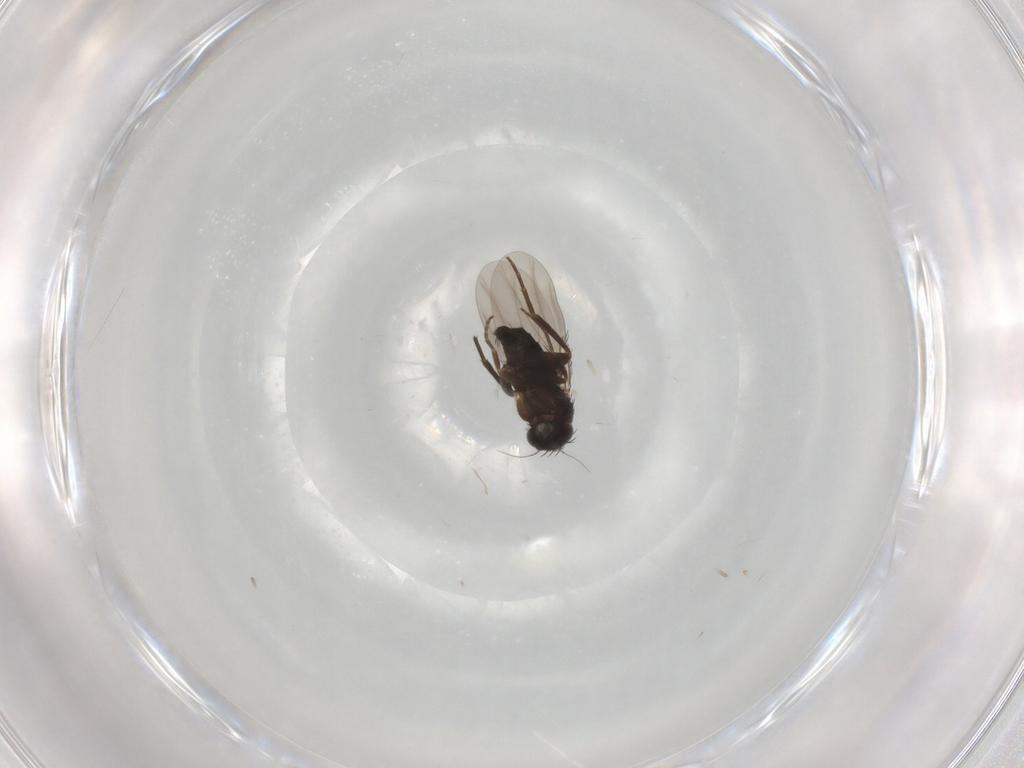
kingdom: Animalia
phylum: Arthropoda
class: Insecta
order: Diptera
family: Phoridae
